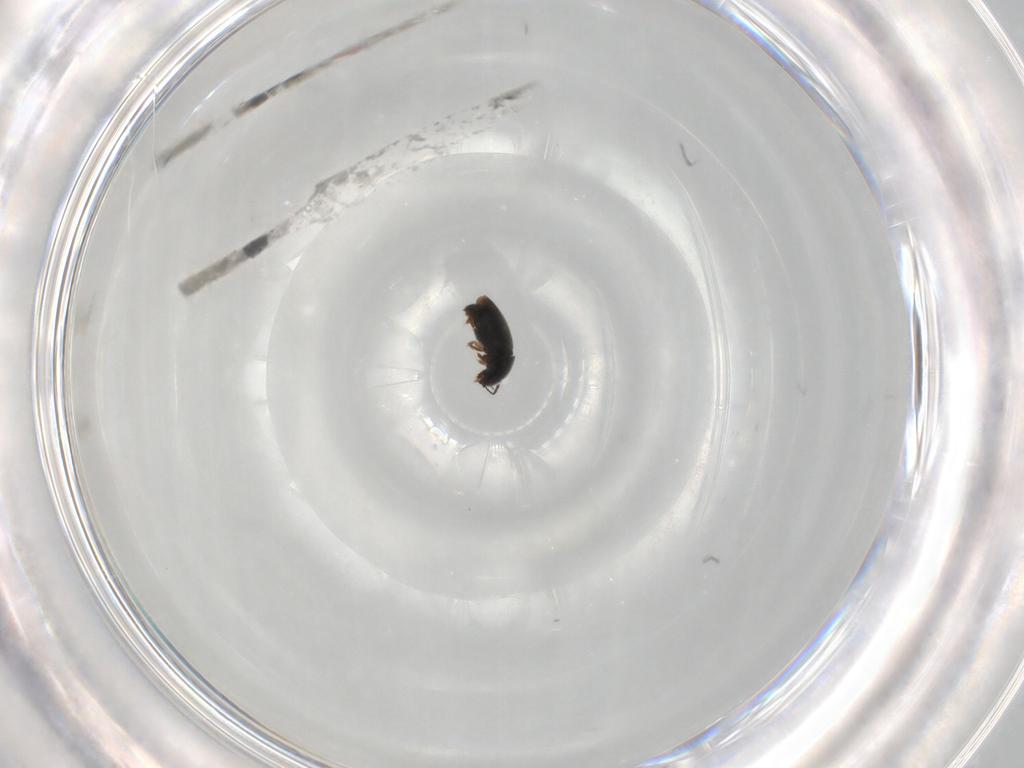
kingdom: Animalia
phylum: Arthropoda
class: Insecta
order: Coleoptera
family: Ptiliidae
